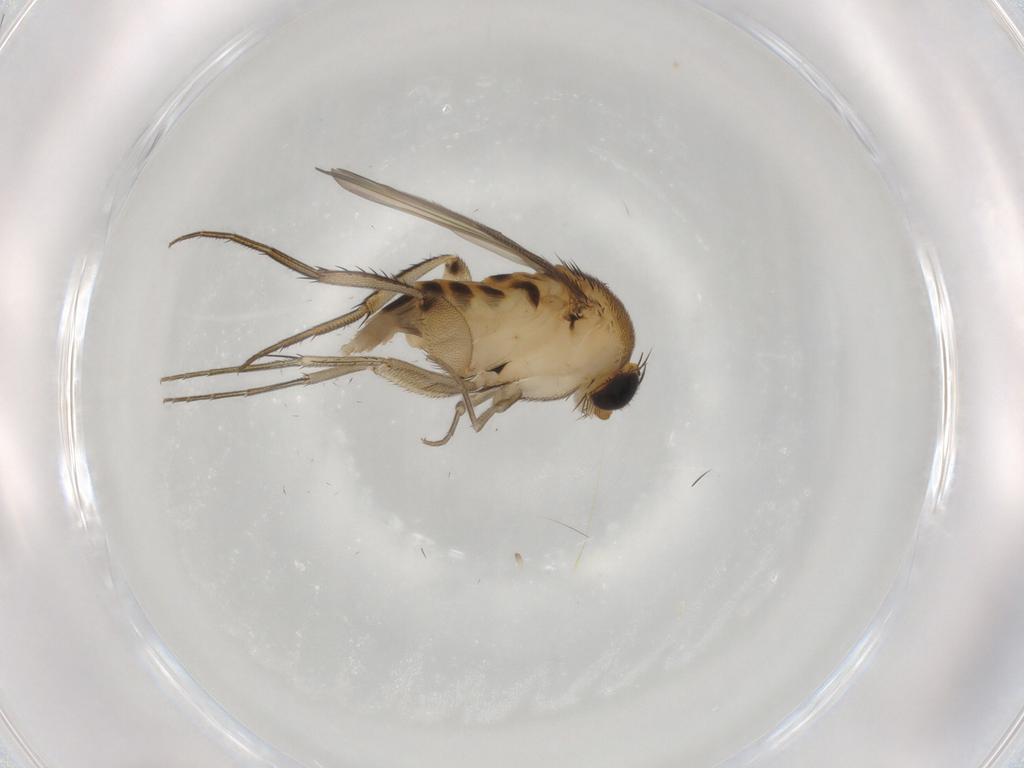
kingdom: Animalia
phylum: Arthropoda
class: Insecta
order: Diptera
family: Phoridae
